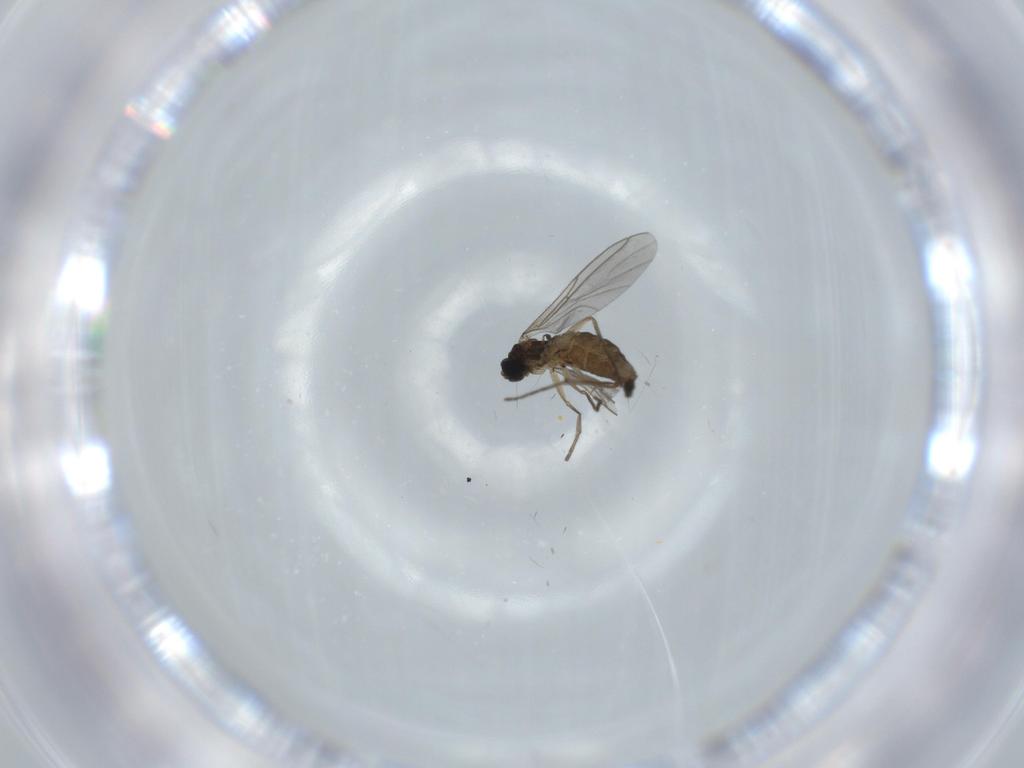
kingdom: Animalia
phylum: Arthropoda
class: Insecta
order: Diptera
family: Sciaridae
